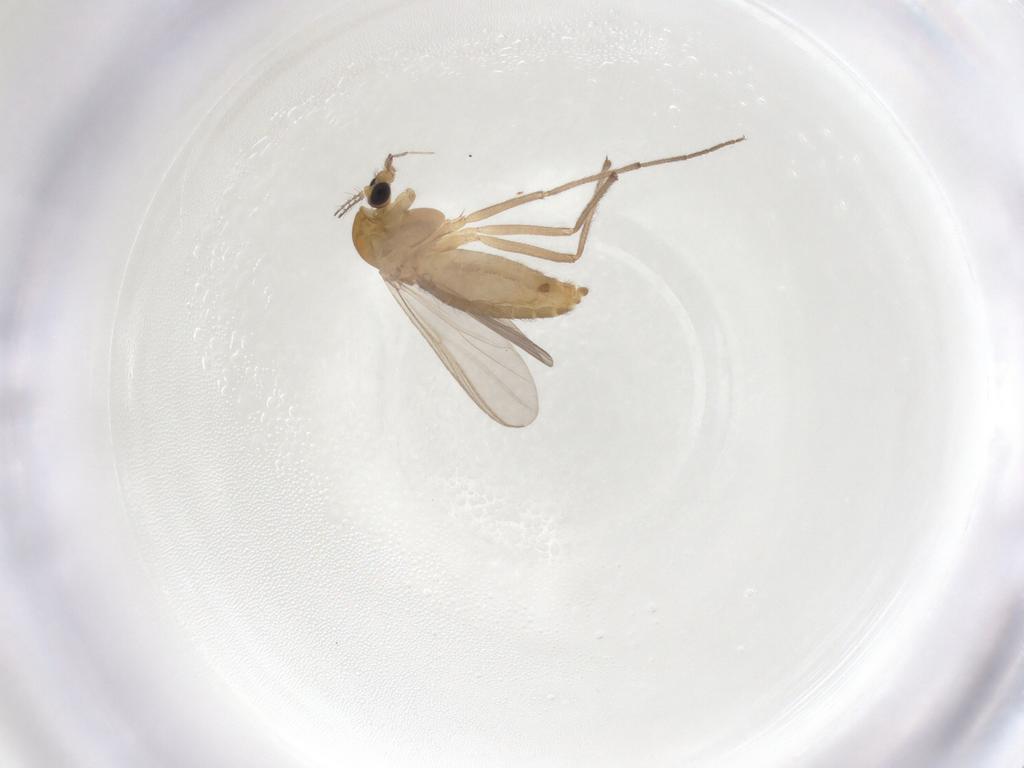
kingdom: Animalia
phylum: Arthropoda
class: Insecta
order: Diptera
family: Chironomidae
